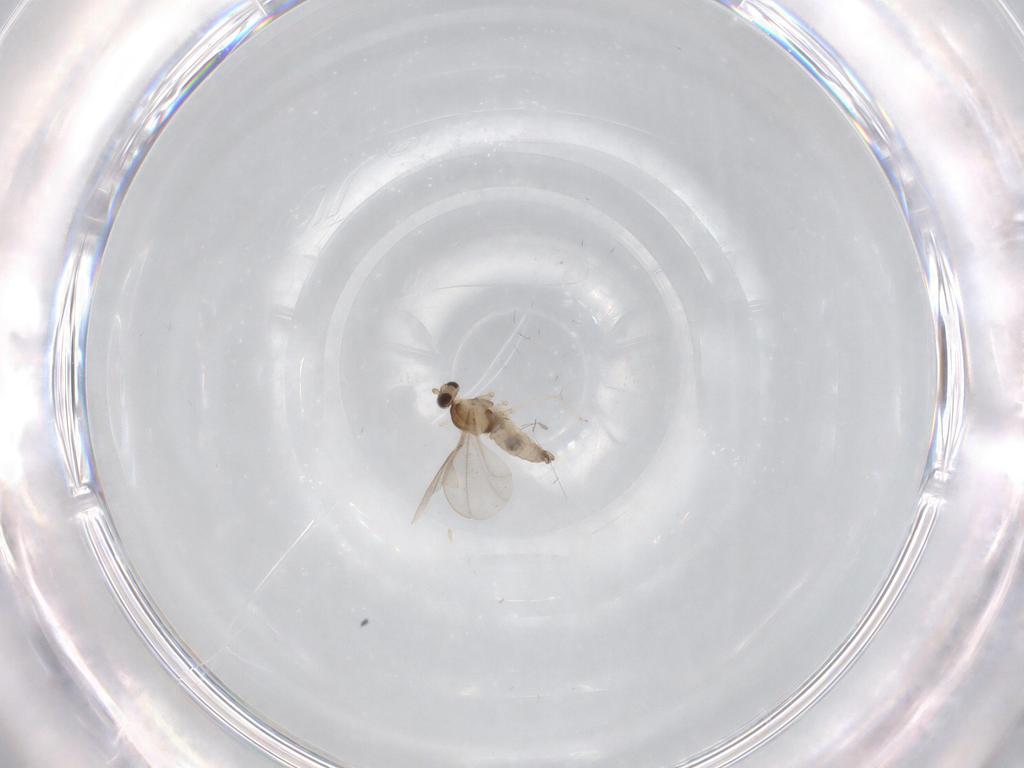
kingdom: Animalia
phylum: Arthropoda
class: Insecta
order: Diptera
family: Cecidomyiidae
